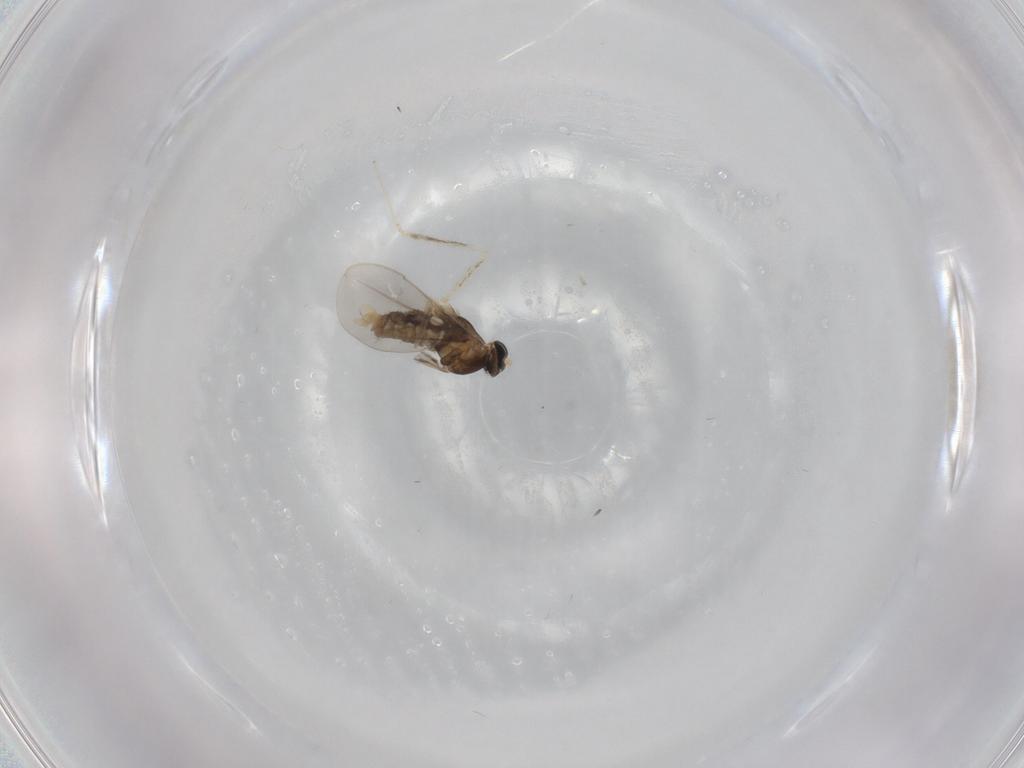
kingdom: Animalia
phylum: Arthropoda
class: Insecta
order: Diptera
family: Cecidomyiidae
